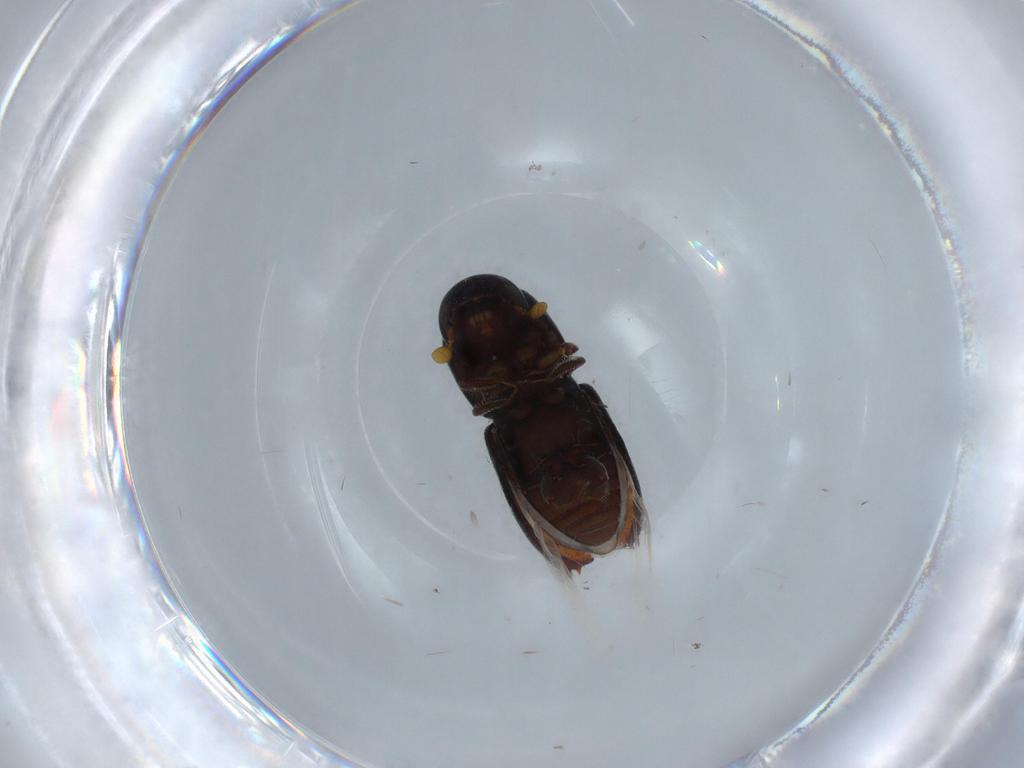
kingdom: Animalia
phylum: Arthropoda
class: Insecta
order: Coleoptera
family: Curculionidae
